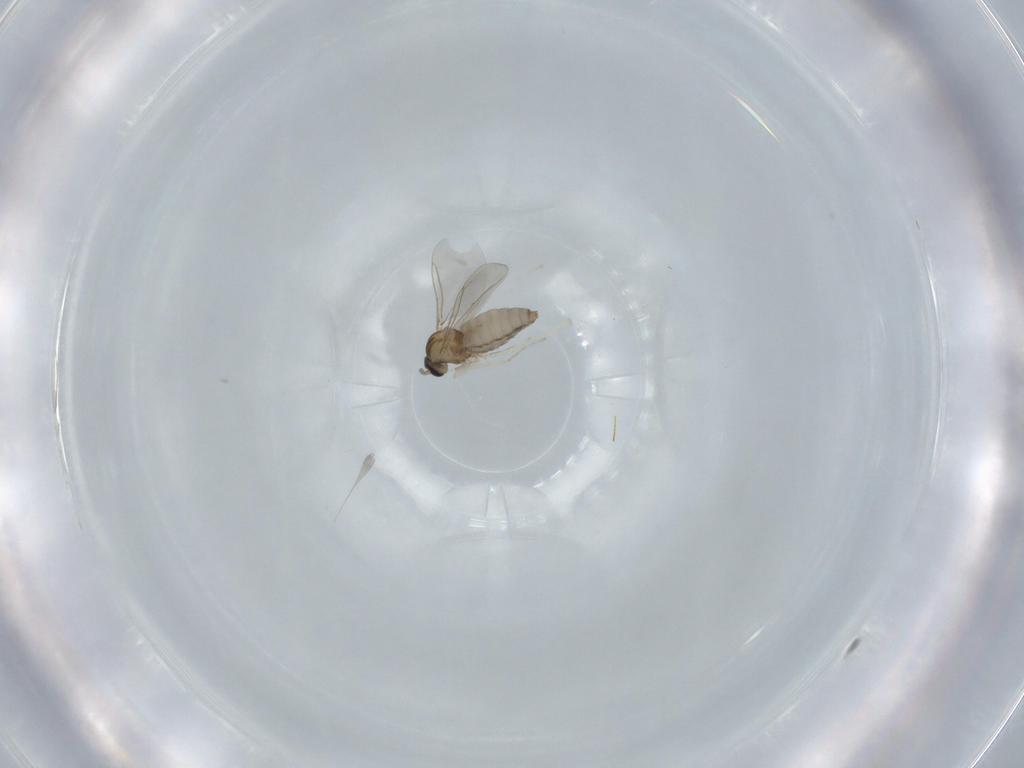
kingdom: Animalia
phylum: Arthropoda
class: Insecta
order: Diptera
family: Cecidomyiidae
